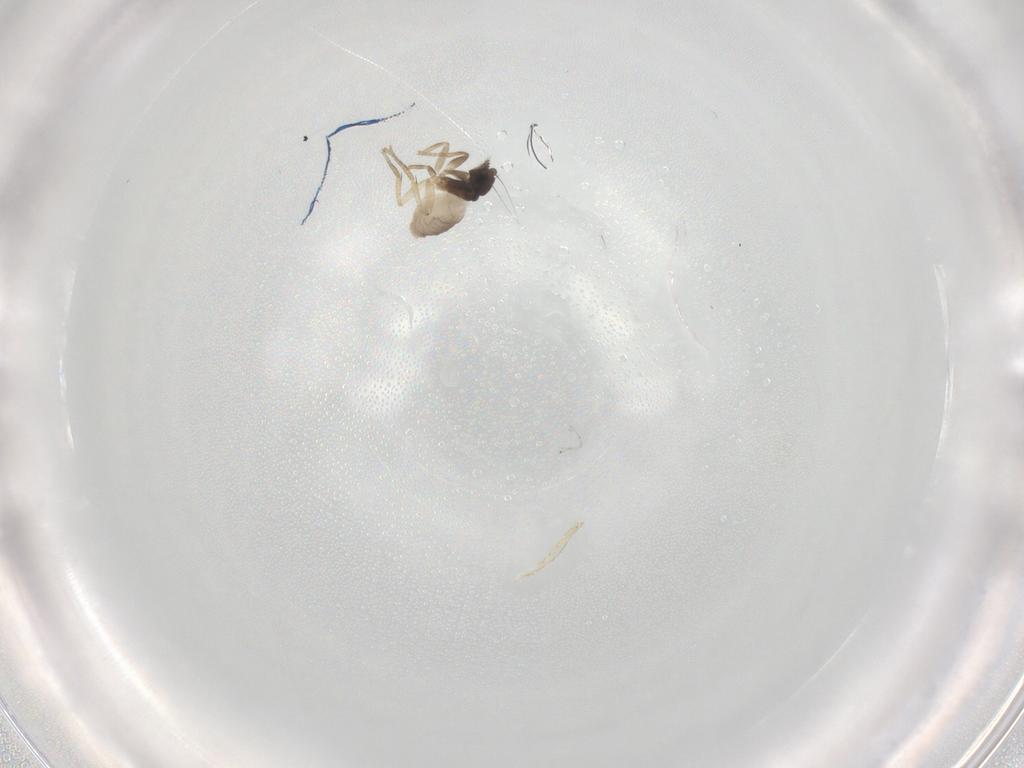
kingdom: Animalia
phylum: Arthropoda
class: Insecta
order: Diptera
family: Phoridae
